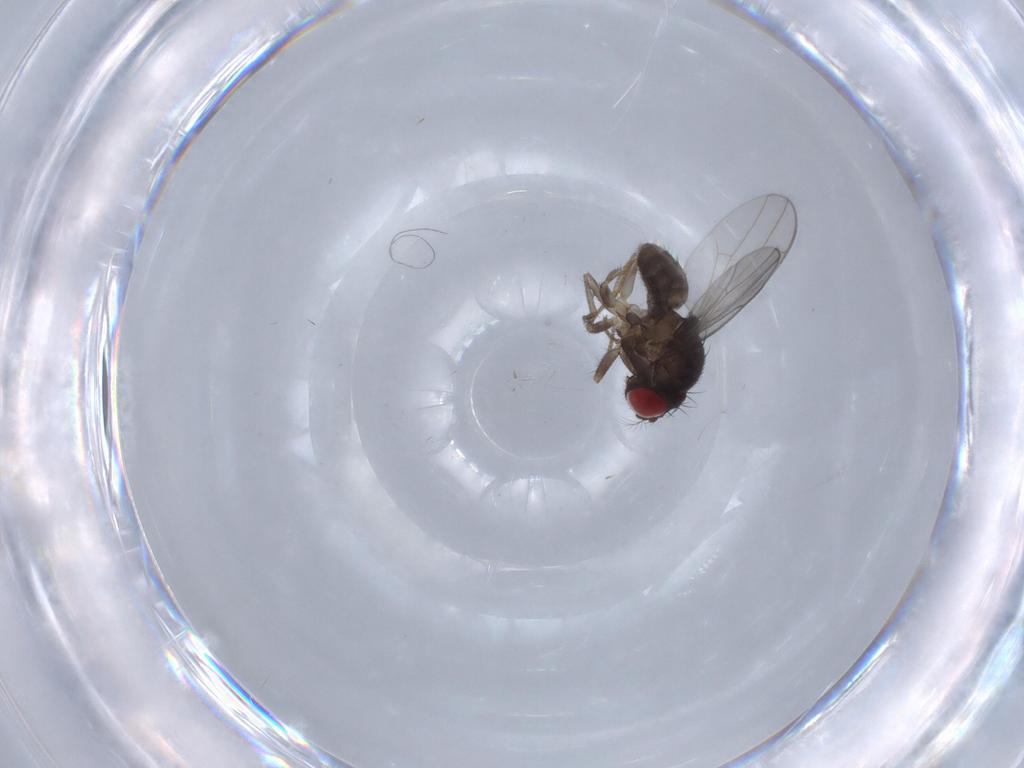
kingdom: Animalia
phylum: Arthropoda
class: Insecta
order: Diptera
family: Drosophilidae
